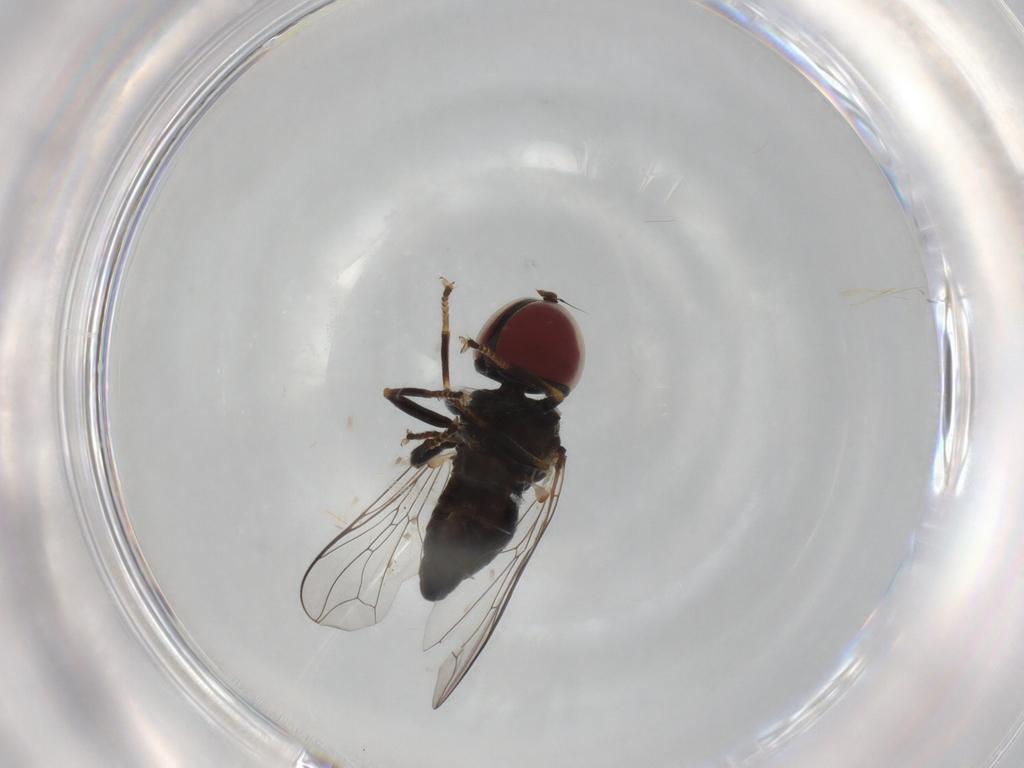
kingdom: Animalia
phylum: Arthropoda
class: Insecta
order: Diptera
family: Pipunculidae
